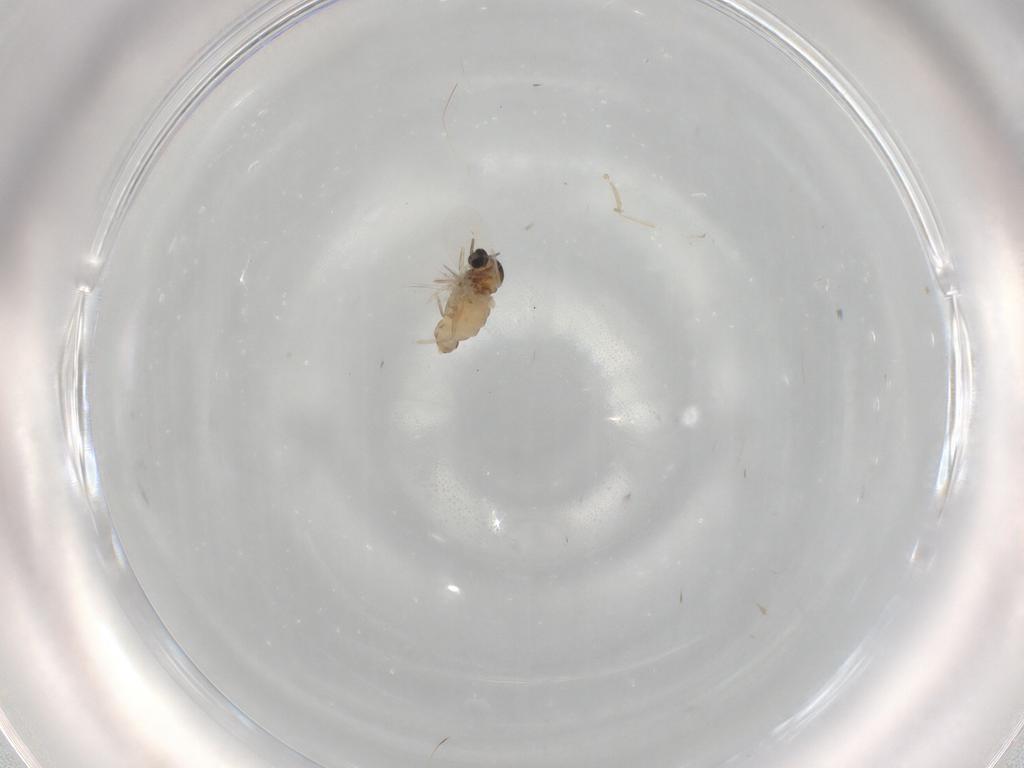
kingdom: Animalia
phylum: Arthropoda
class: Insecta
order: Diptera
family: Cecidomyiidae
